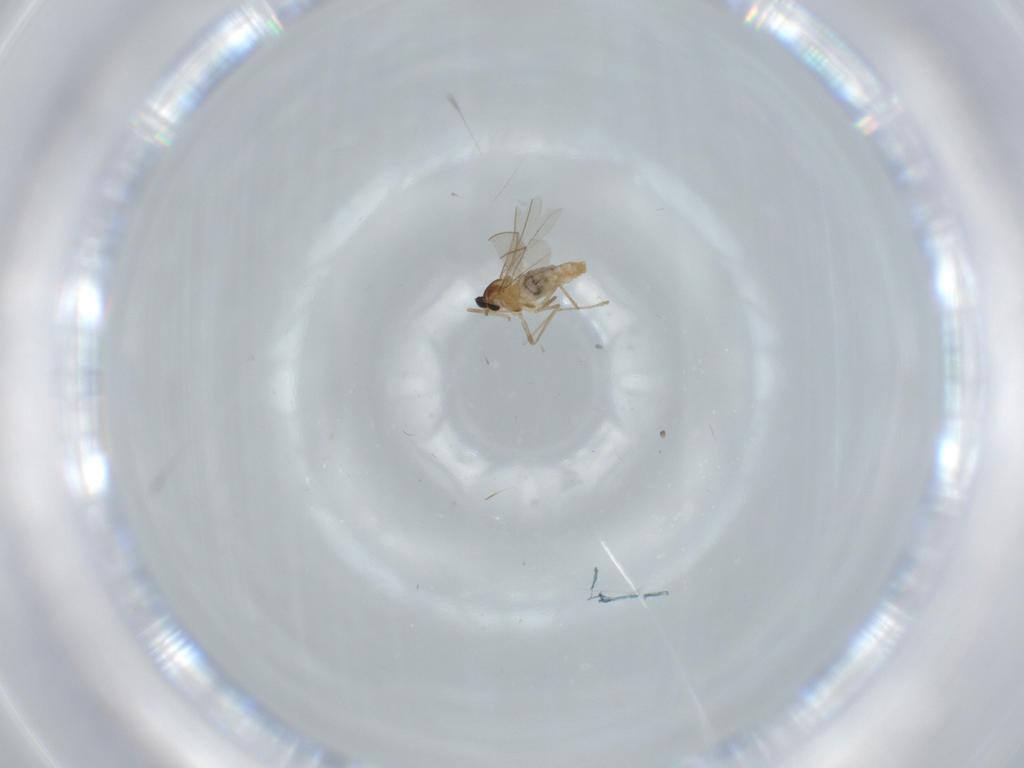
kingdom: Animalia
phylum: Arthropoda
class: Insecta
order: Diptera
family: Cecidomyiidae
